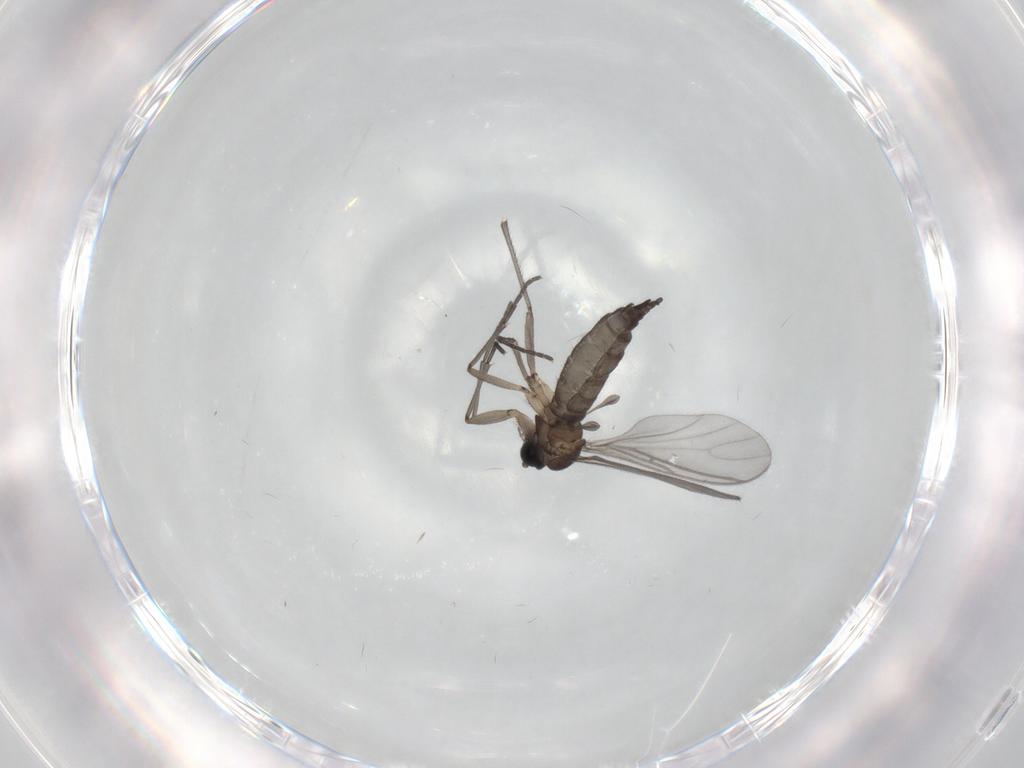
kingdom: Animalia
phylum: Arthropoda
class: Insecta
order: Diptera
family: Sciaridae
